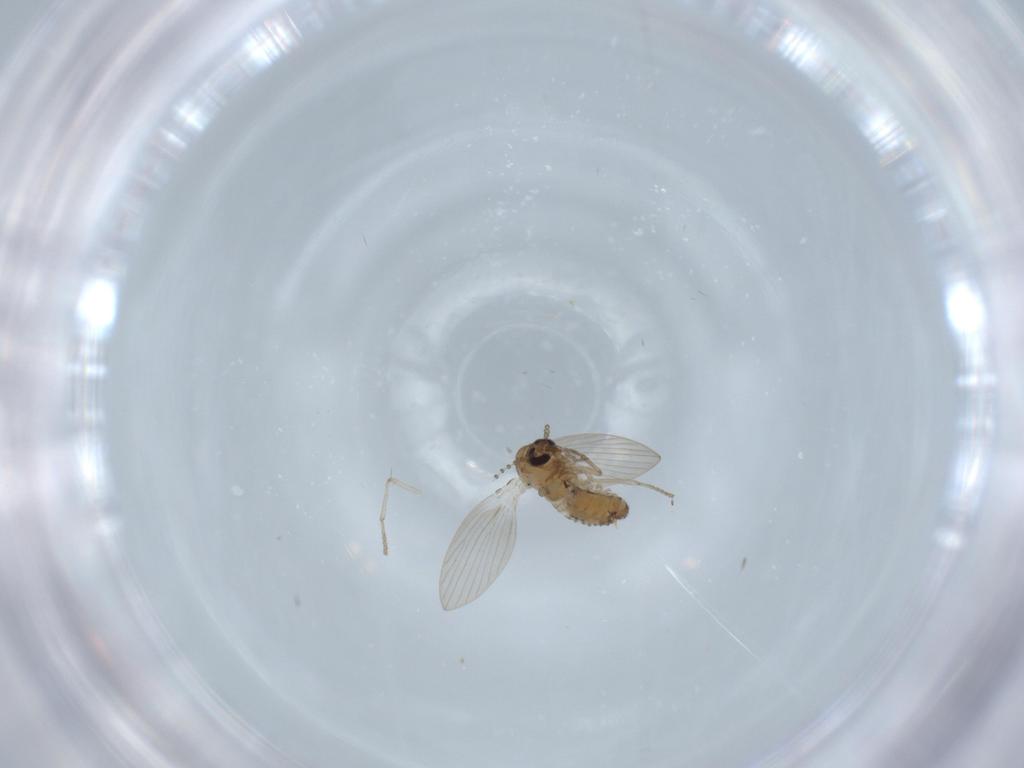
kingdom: Animalia
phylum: Arthropoda
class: Insecta
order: Diptera
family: Psychodidae
